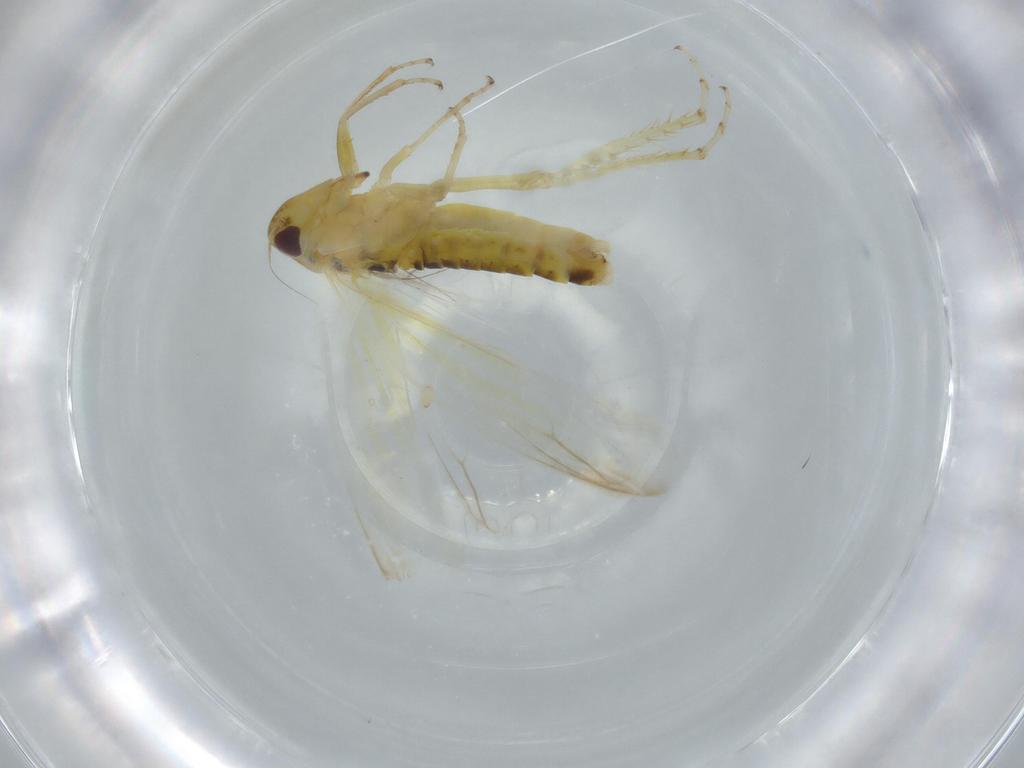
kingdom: Animalia
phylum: Arthropoda
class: Insecta
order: Hemiptera
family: Cicadellidae
